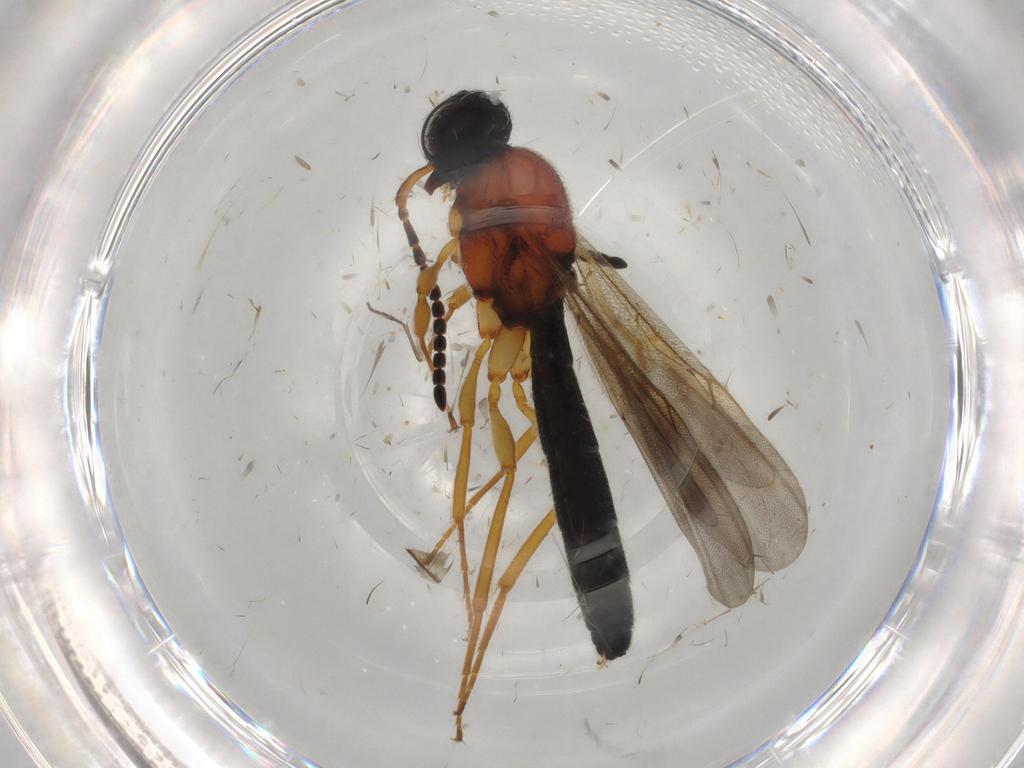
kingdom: Animalia
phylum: Arthropoda
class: Insecta
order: Hymenoptera
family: Scelionidae
